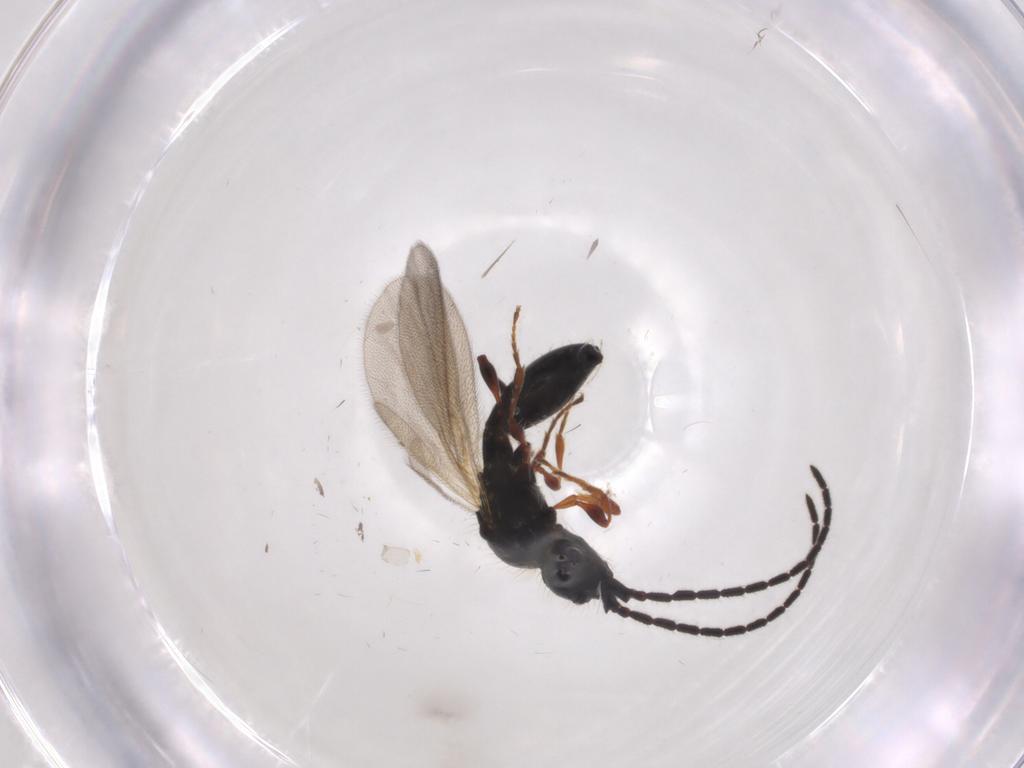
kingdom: Animalia
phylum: Arthropoda
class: Insecta
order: Hymenoptera
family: Diapriidae
